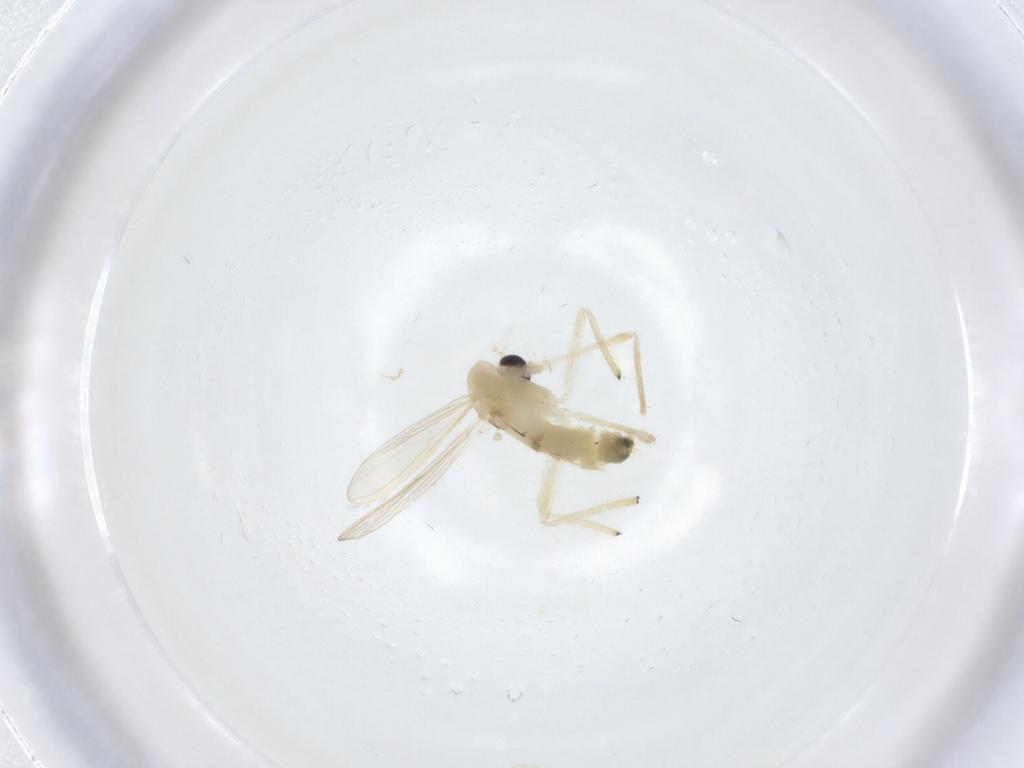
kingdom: Animalia
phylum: Arthropoda
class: Insecta
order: Diptera
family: Chironomidae
